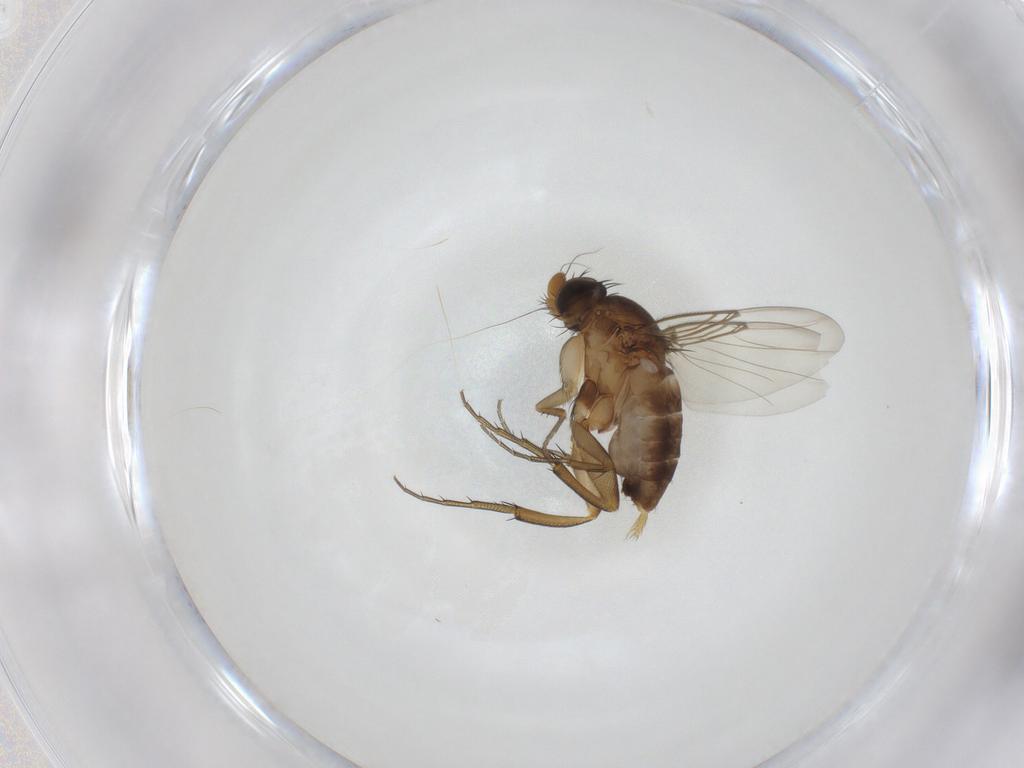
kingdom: Animalia
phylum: Arthropoda
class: Insecta
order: Diptera
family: Phoridae
